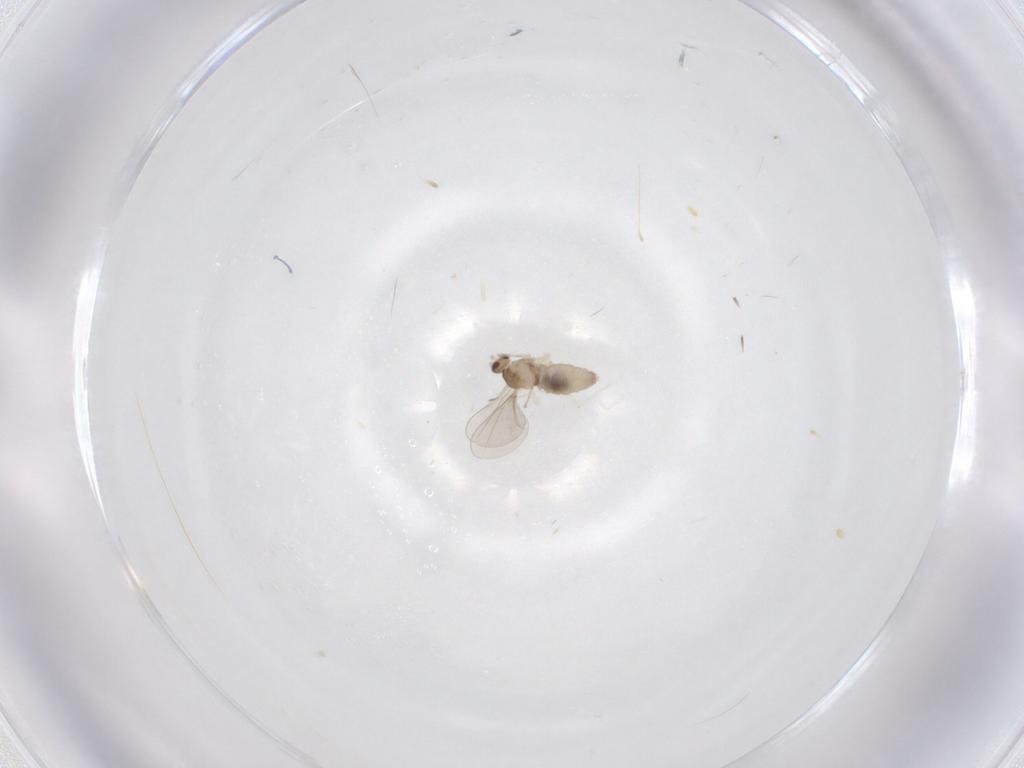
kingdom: Animalia
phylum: Arthropoda
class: Insecta
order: Diptera
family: Cecidomyiidae
